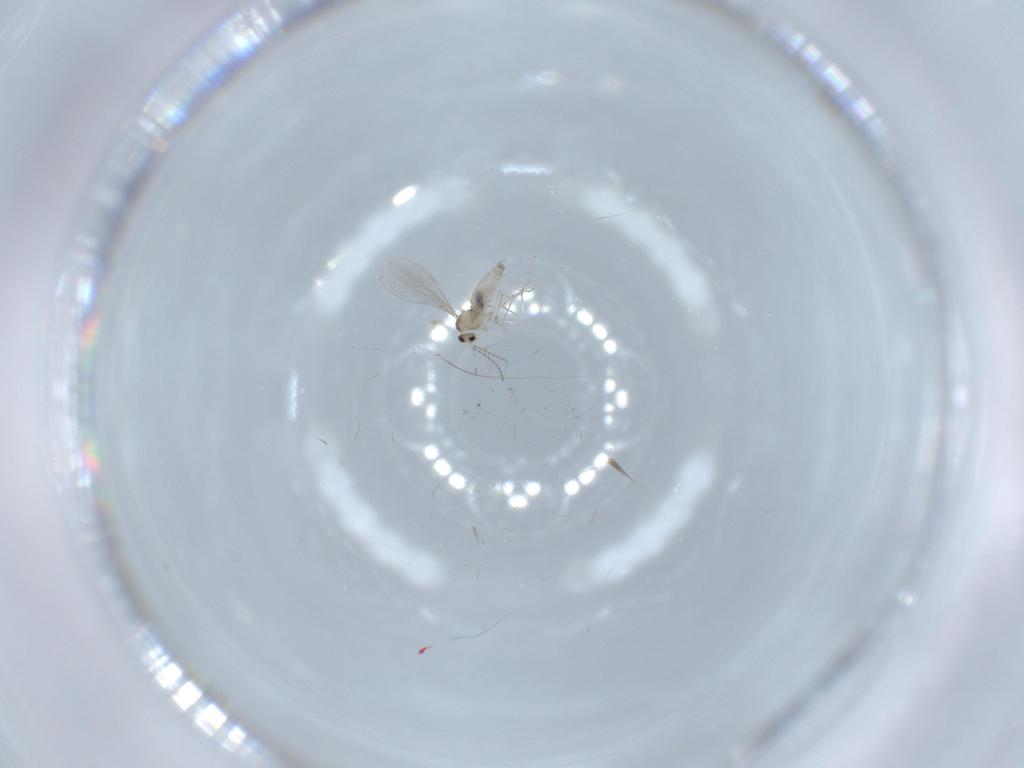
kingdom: Animalia
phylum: Arthropoda
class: Insecta
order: Diptera
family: Cecidomyiidae
